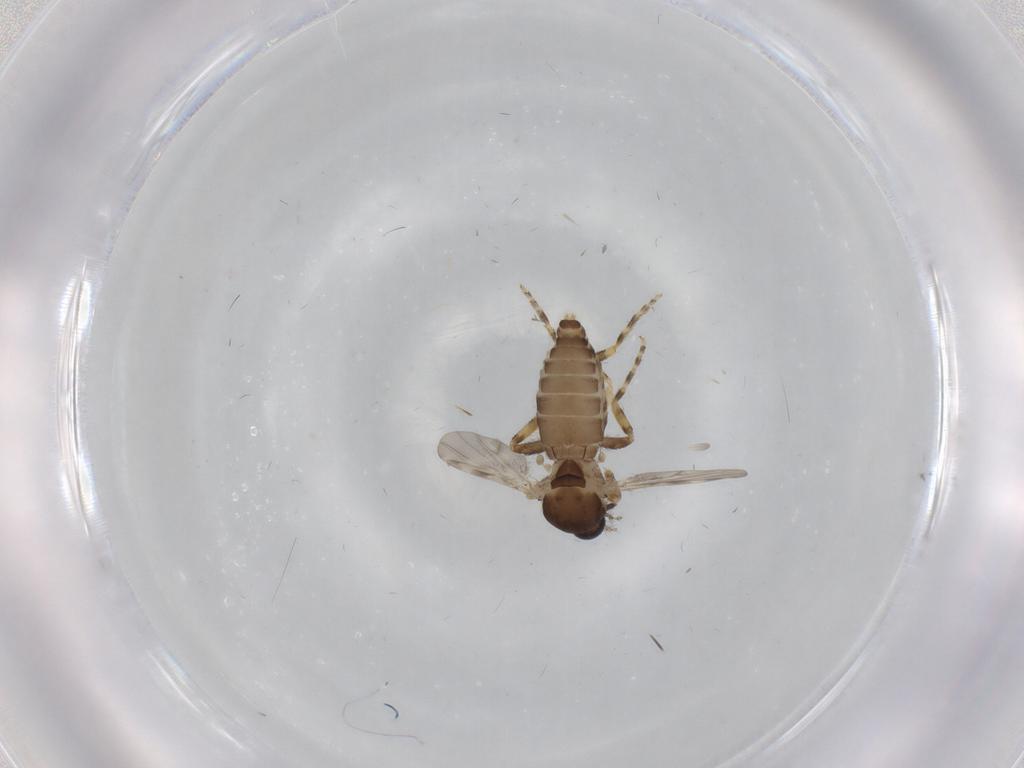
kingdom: Animalia
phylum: Arthropoda
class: Insecta
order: Diptera
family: Ceratopogonidae
